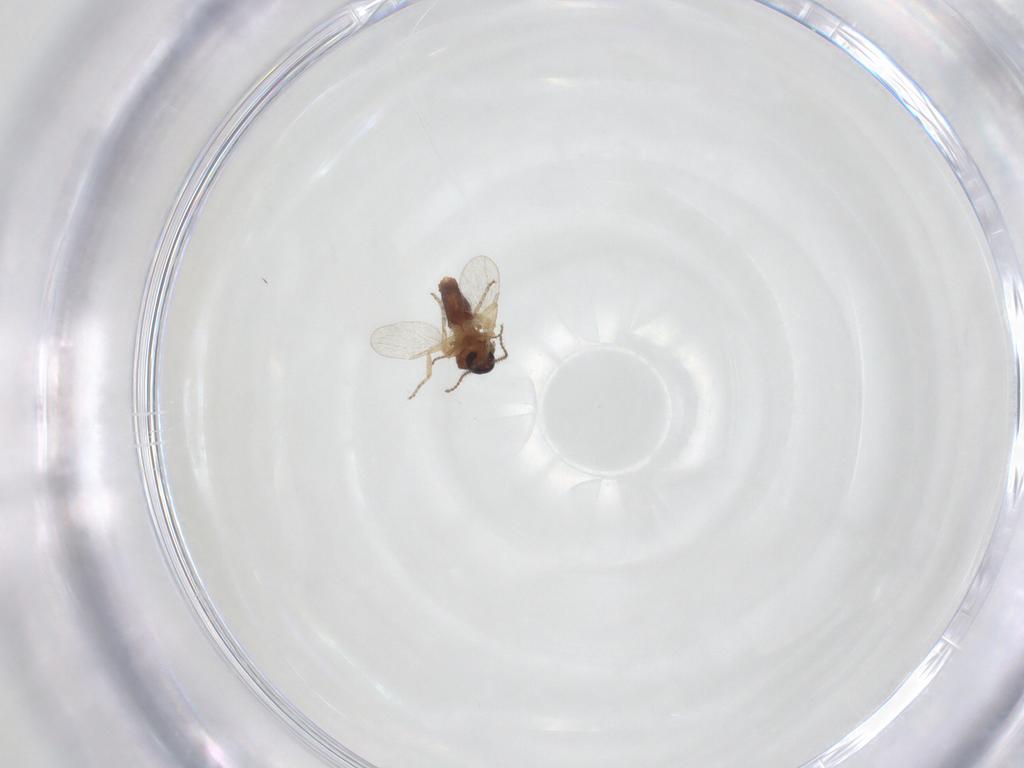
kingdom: Animalia
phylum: Arthropoda
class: Insecta
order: Diptera
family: Ceratopogonidae
